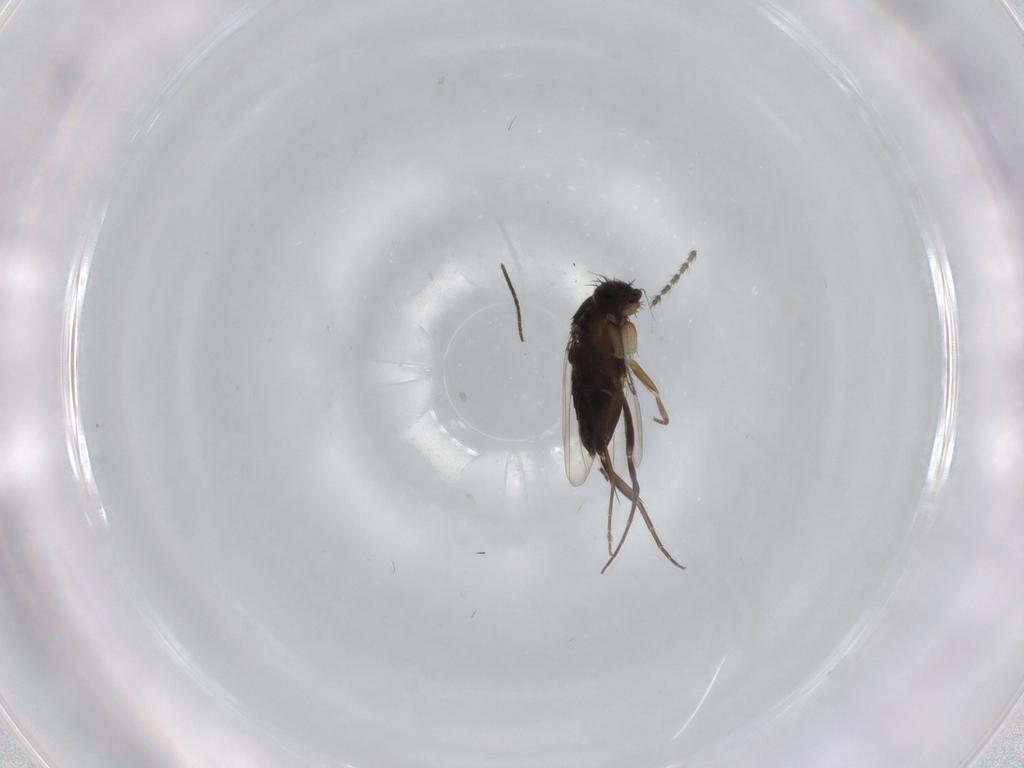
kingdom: Animalia
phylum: Arthropoda
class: Insecta
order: Diptera
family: Phoridae
